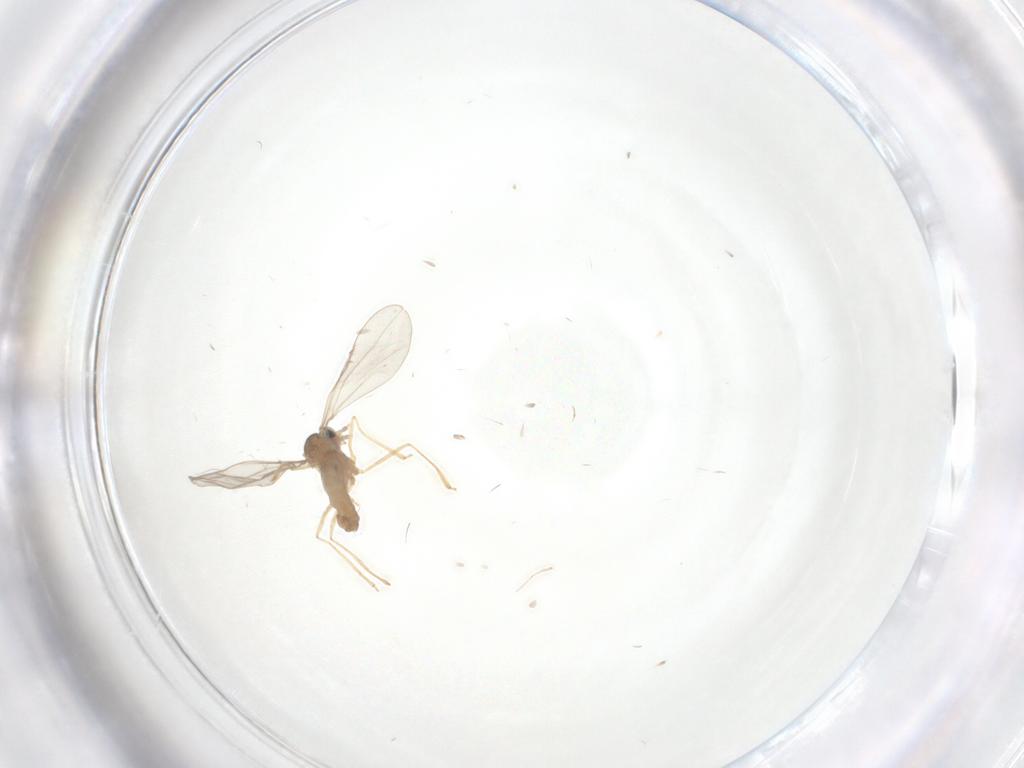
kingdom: Animalia
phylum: Arthropoda
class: Insecta
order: Diptera
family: Cecidomyiidae
